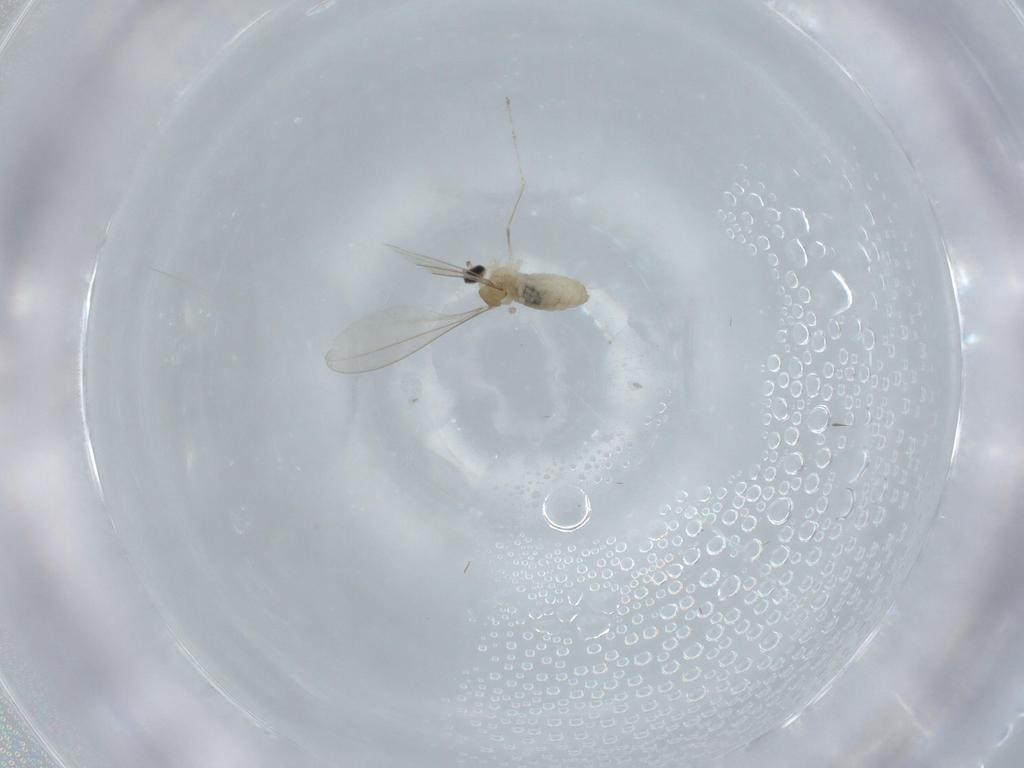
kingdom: Animalia
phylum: Arthropoda
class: Insecta
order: Diptera
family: Cecidomyiidae
